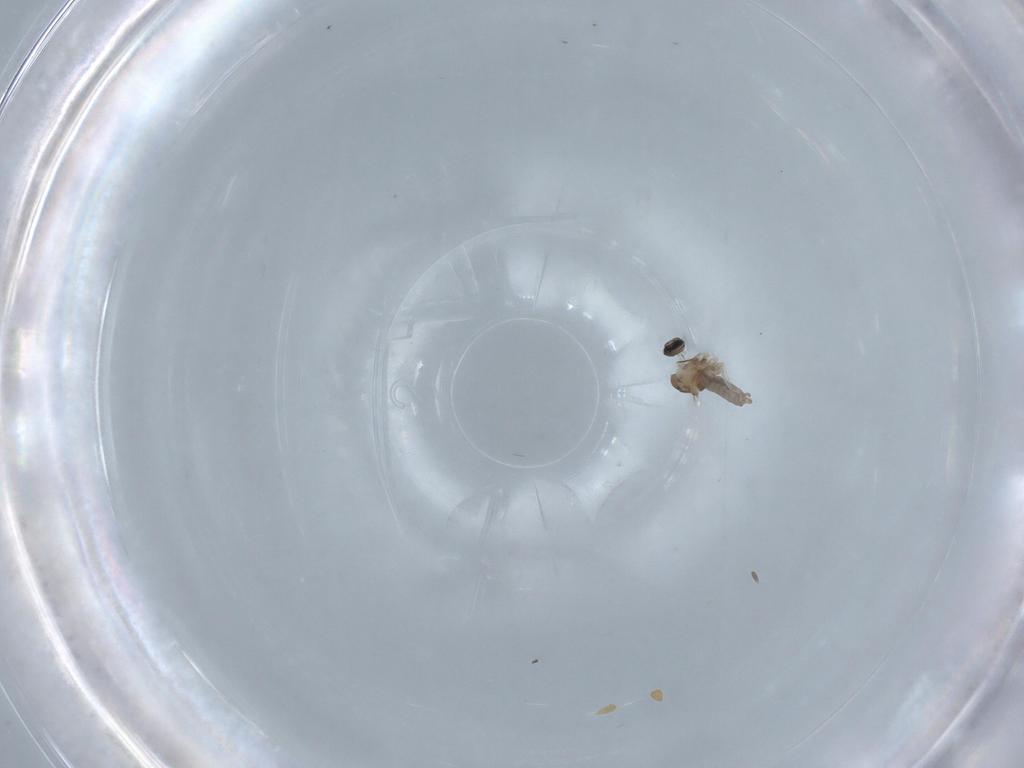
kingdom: Animalia
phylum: Arthropoda
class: Insecta
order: Diptera
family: Cecidomyiidae
